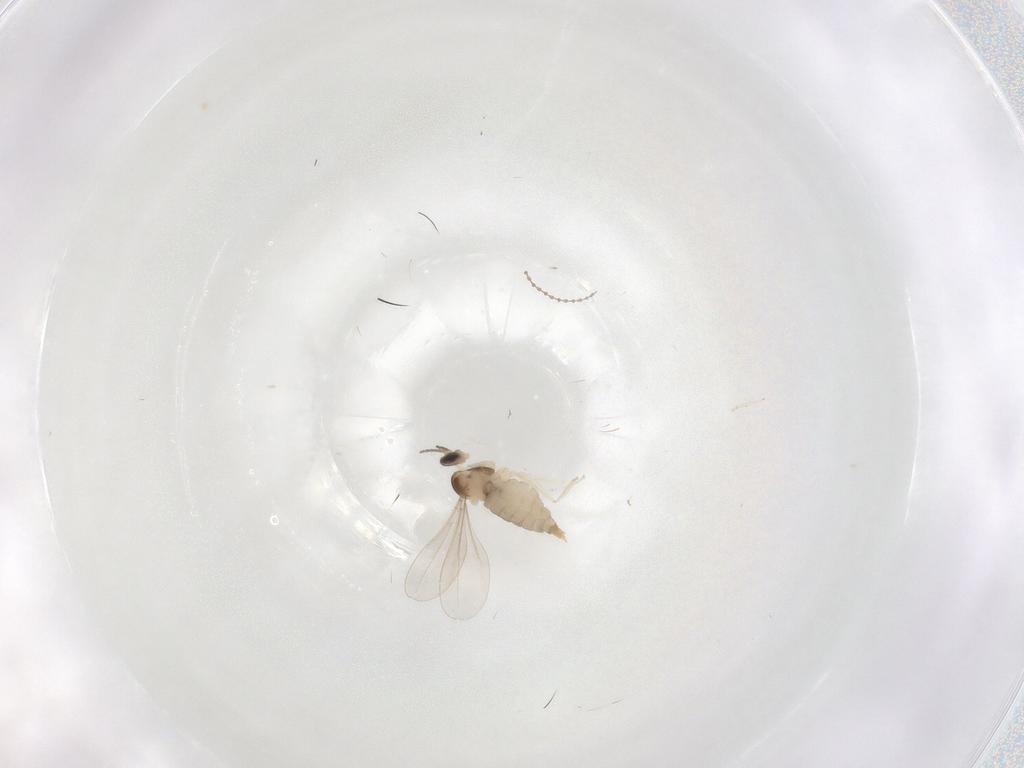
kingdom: Animalia
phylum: Arthropoda
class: Insecta
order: Diptera
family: Cecidomyiidae
